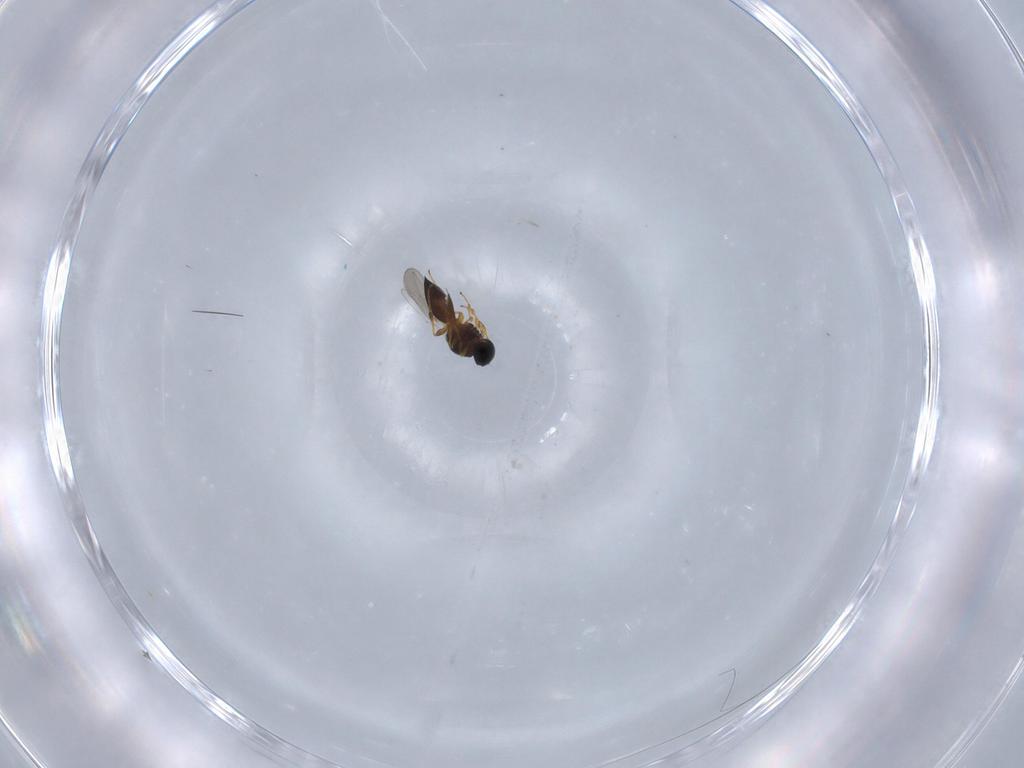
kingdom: Animalia
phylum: Arthropoda
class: Insecta
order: Hymenoptera
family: Platygastridae
